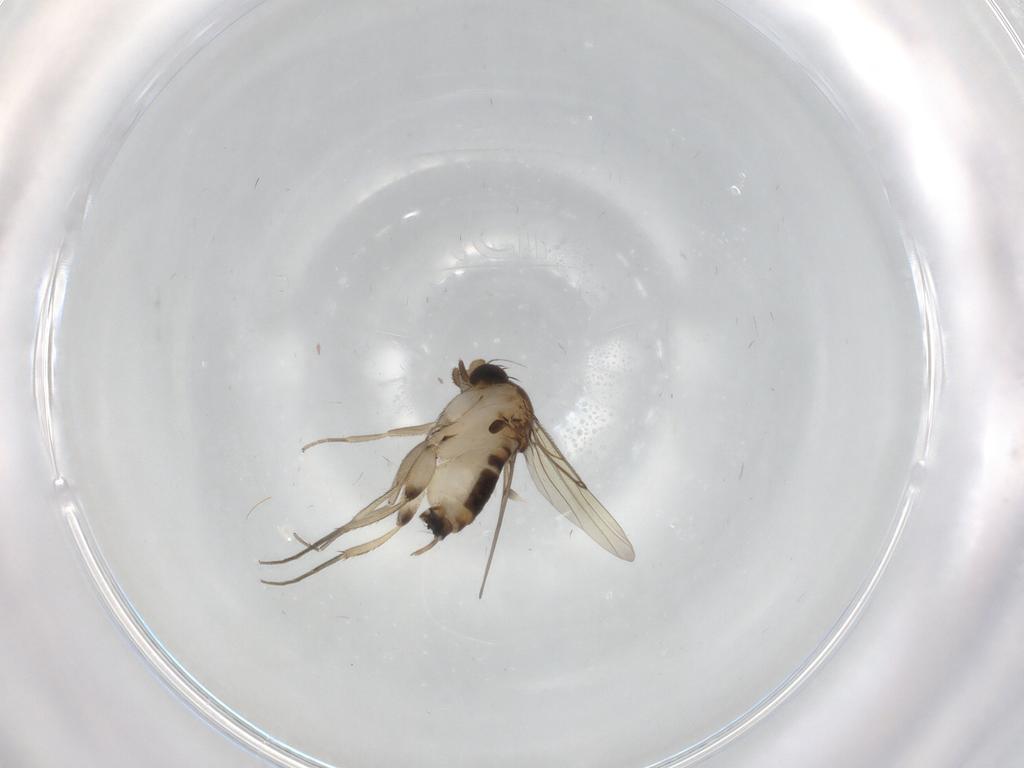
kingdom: Animalia
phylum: Arthropoda
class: Insecta
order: Diptera
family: Phoridae
